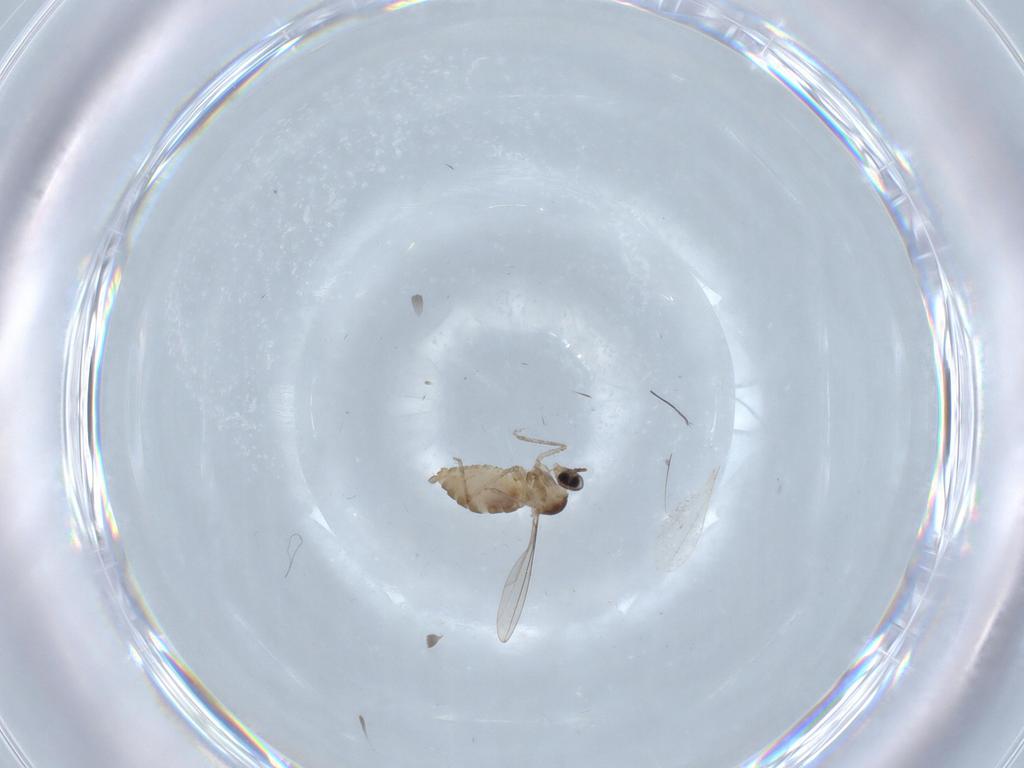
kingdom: Animalia
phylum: Arthropoda
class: Insecta
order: Diptera
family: Cecidomyiidae
